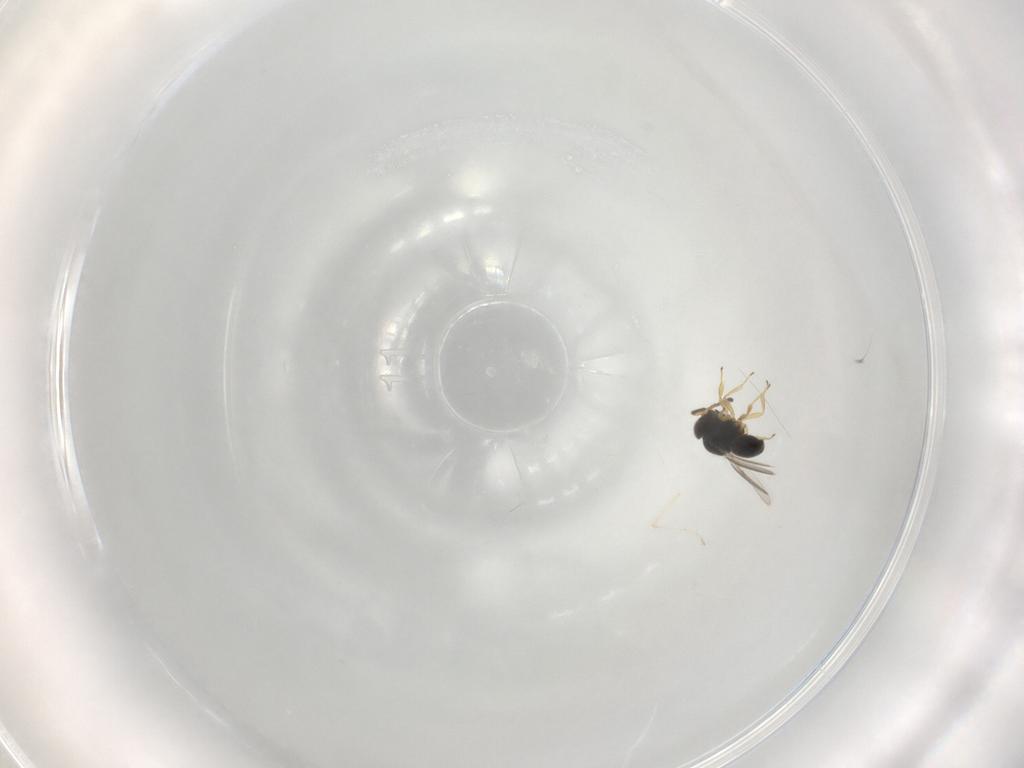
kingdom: Animalia
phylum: Arthropoda
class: Insecta
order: Hymenoptera
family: Scelionidae
